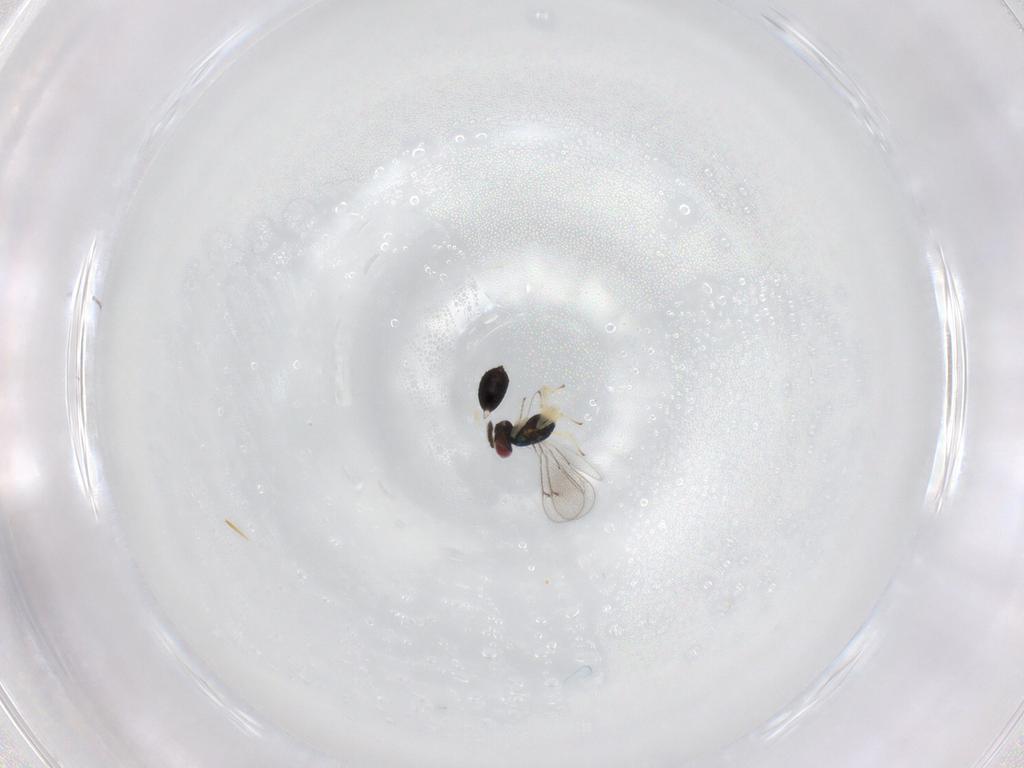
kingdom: Animalia
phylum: Arthropoda
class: Insecta
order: Hymenoptera
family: Eulophidae
